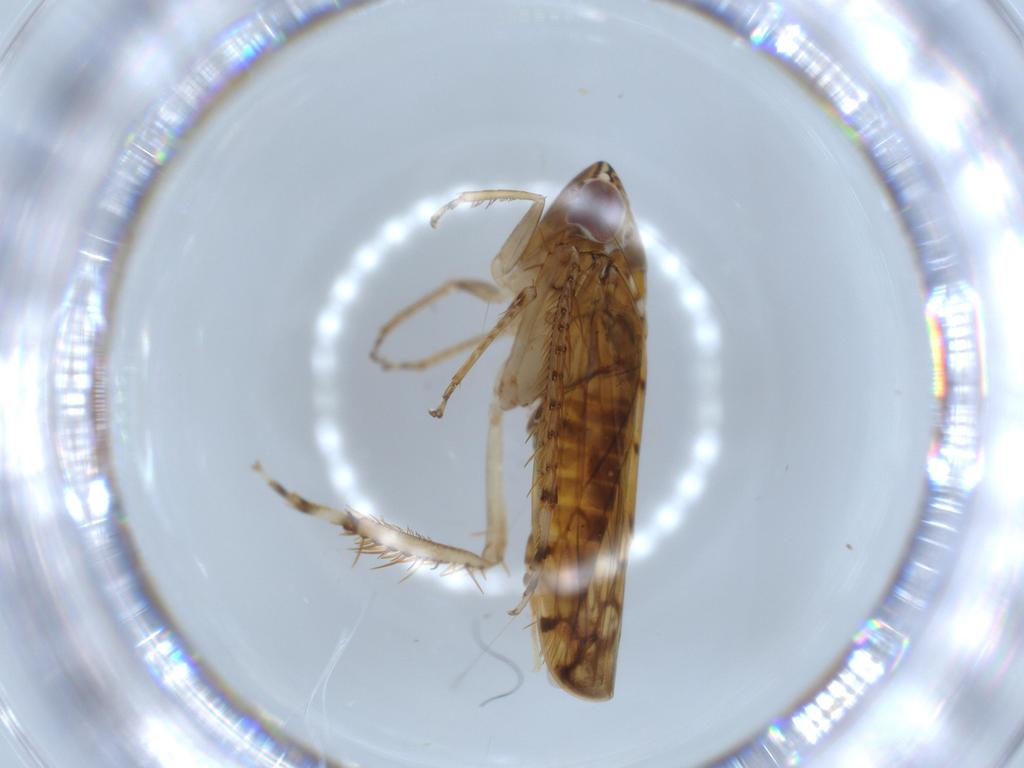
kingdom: Animalia
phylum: Arthropoda
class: Insecta
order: Hemiptera
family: Cicadellidae
